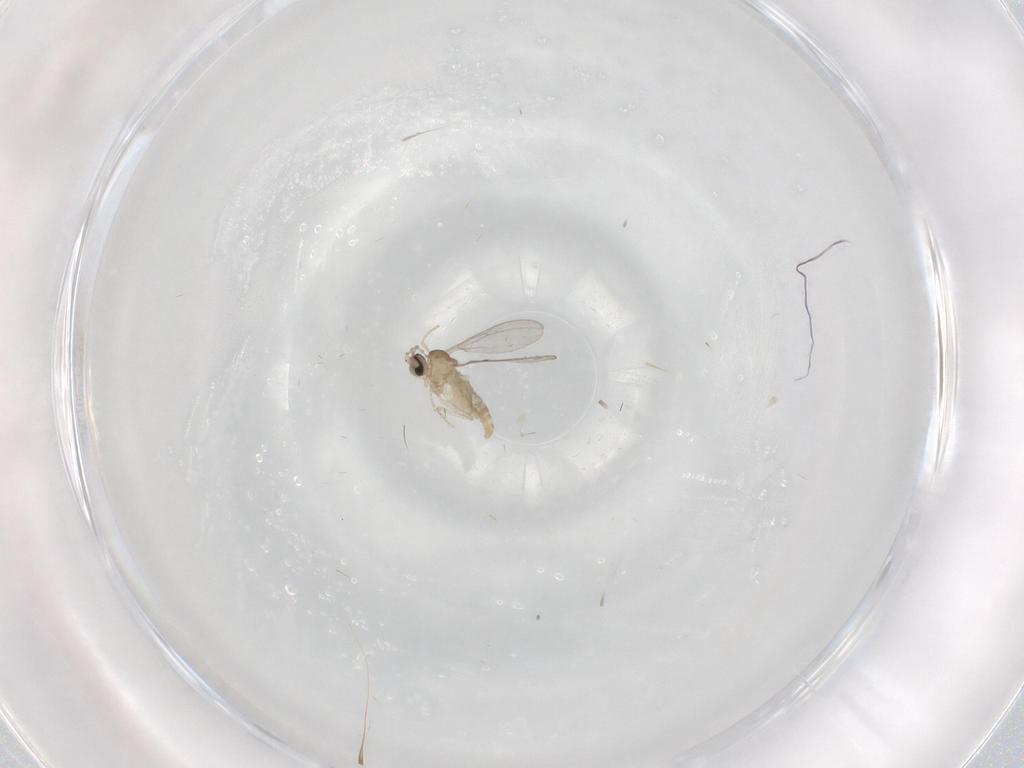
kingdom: Animalia
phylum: Arthropoda
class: Insecta
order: Diptera
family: Cecidomyiidae
